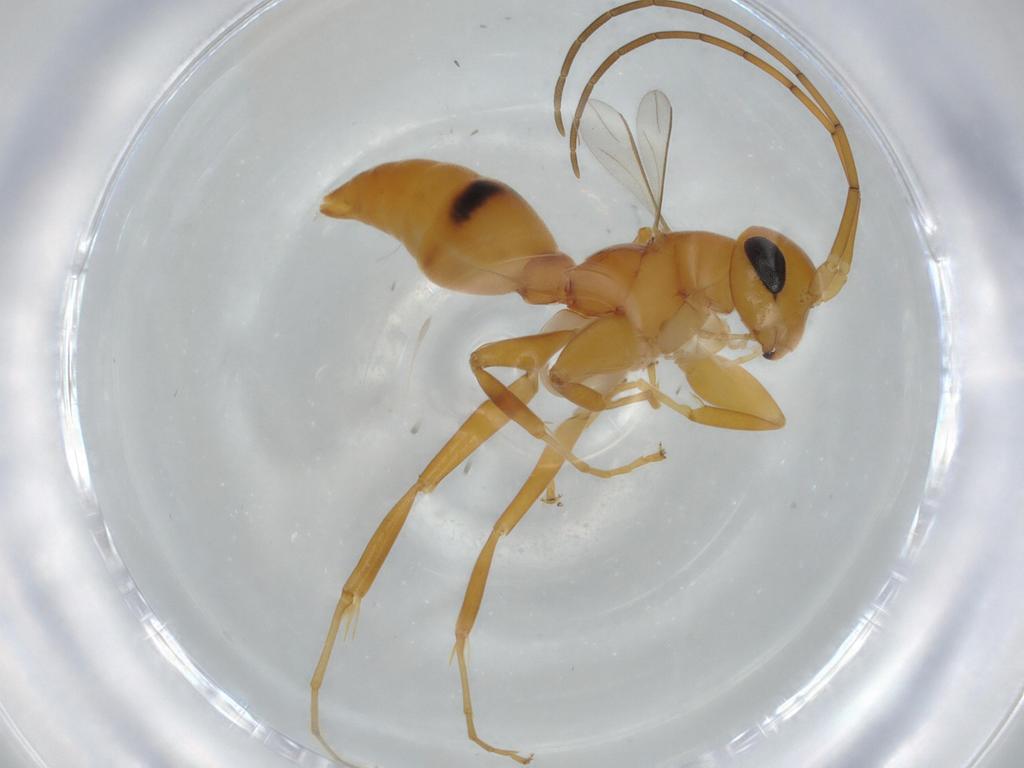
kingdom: Animalia
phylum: Arthropoda
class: Insecta
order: Hymenoptera
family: Rhopalosomatidae
